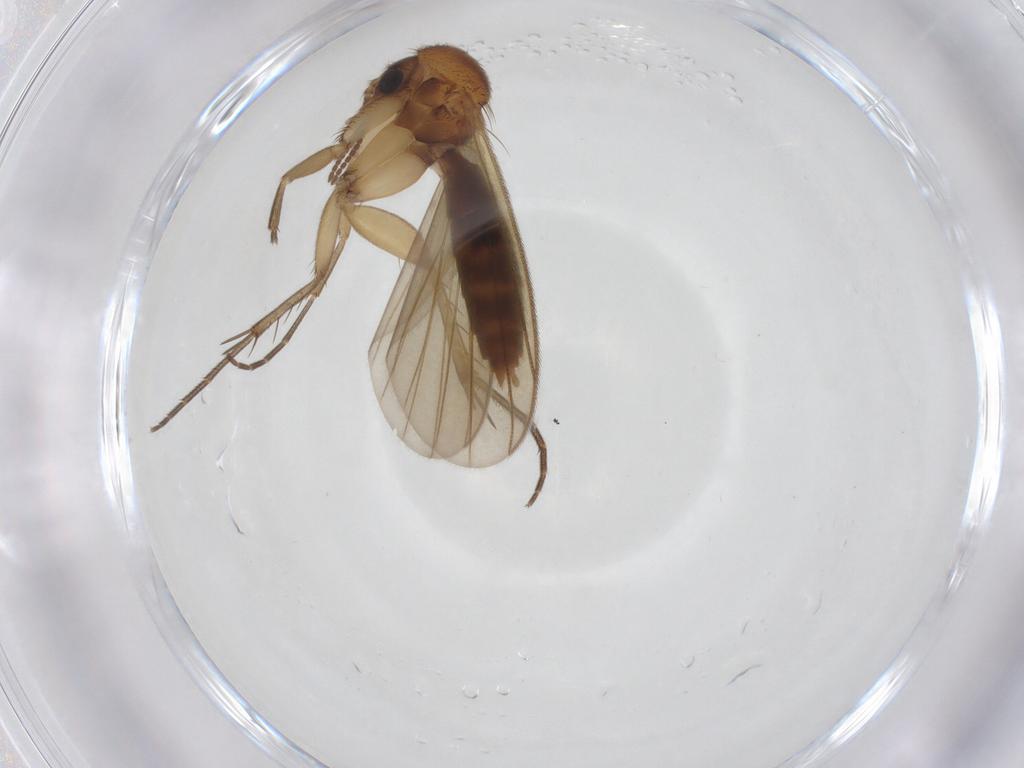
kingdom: Animalia
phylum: Arthropoda
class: Insecta
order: Diptera
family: Mycetophilidae
